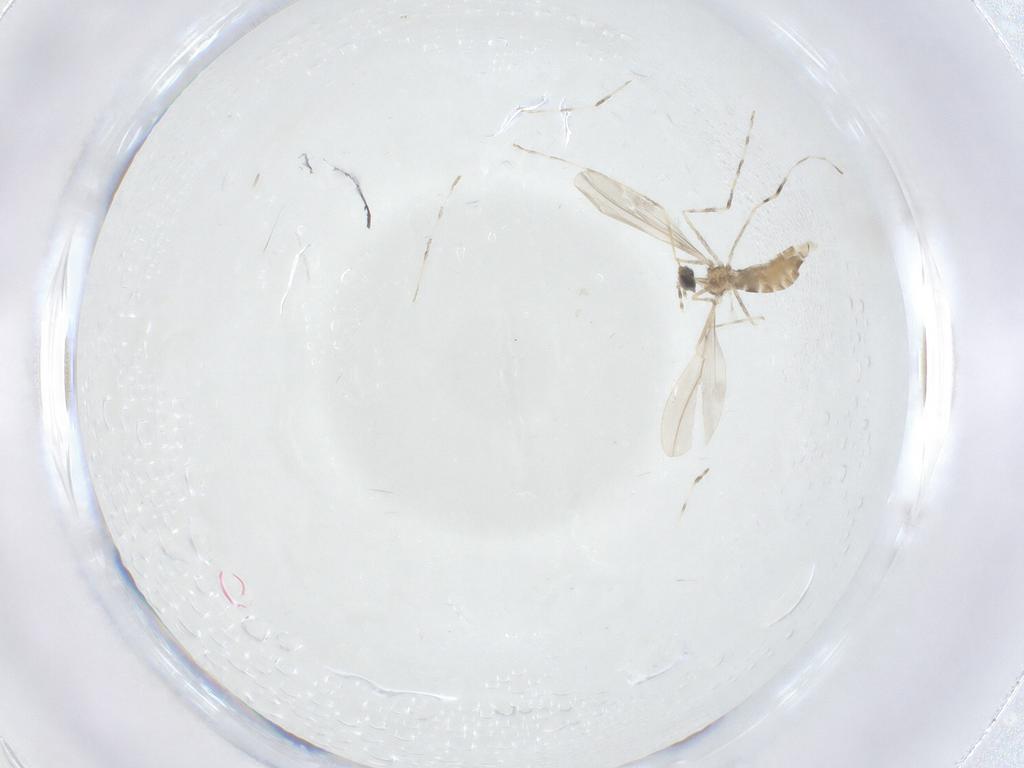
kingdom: Animalia
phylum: Arthropoda
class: Insecta
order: Diptera
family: Cecidomyiidae
